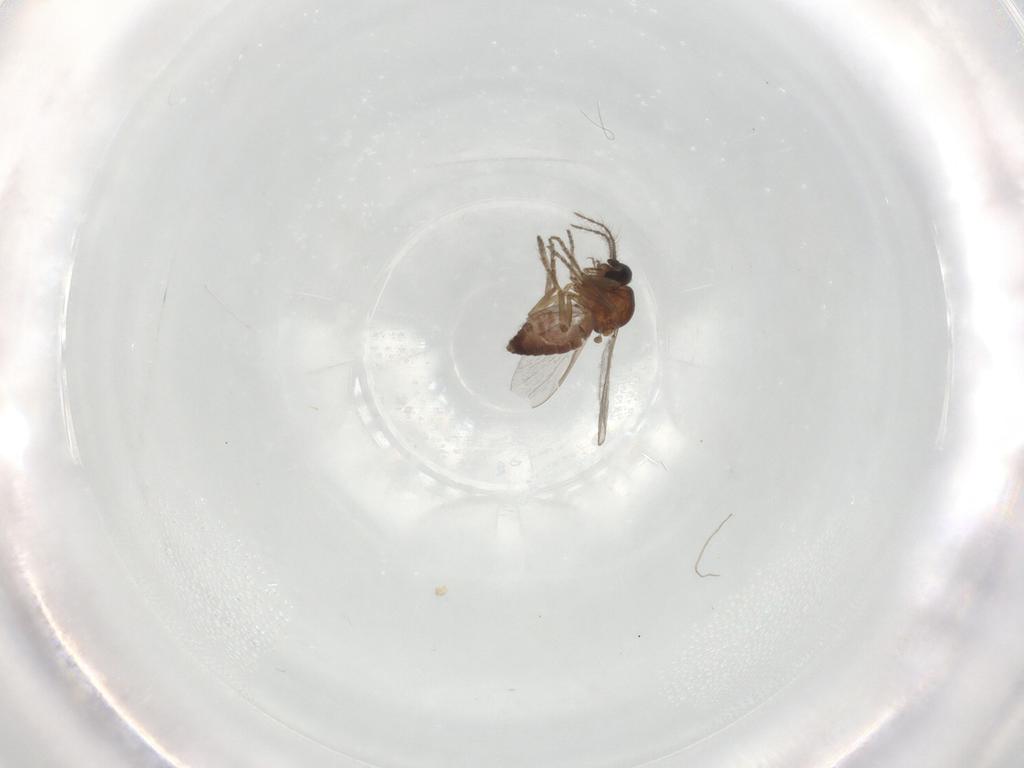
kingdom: Animalia
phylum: Arthropoda
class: Insecta
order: Diptera
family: Ceratopogonidae
